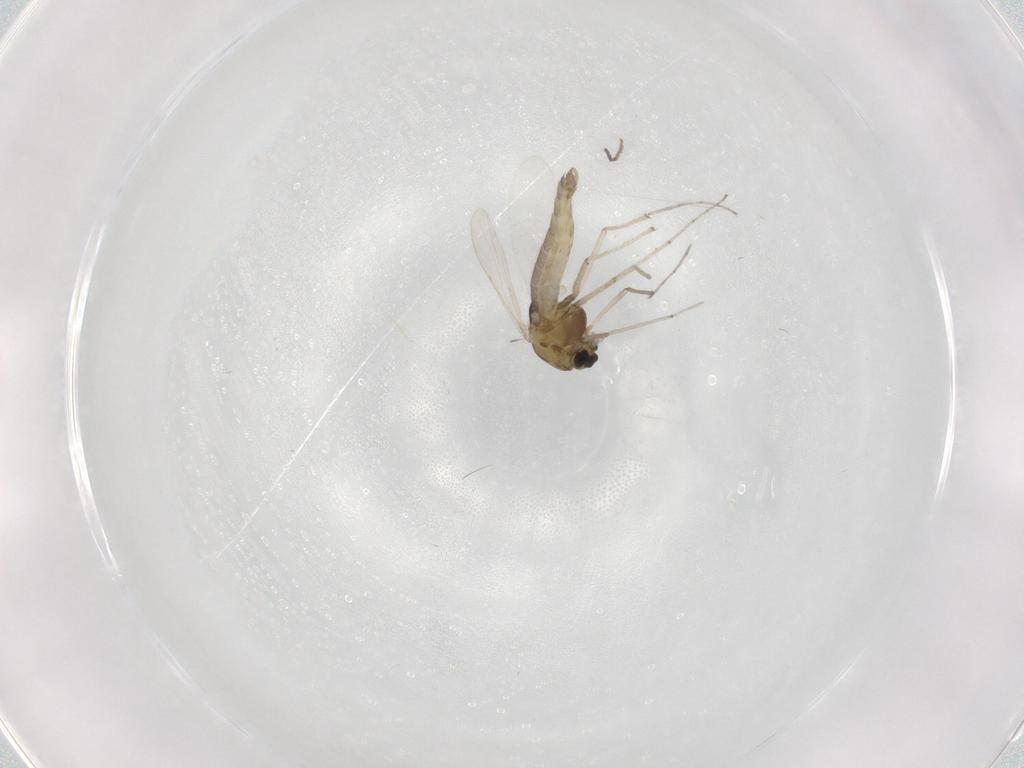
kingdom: Animalia
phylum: Arthropoda
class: Insecta
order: Diptera
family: Chironomidae
